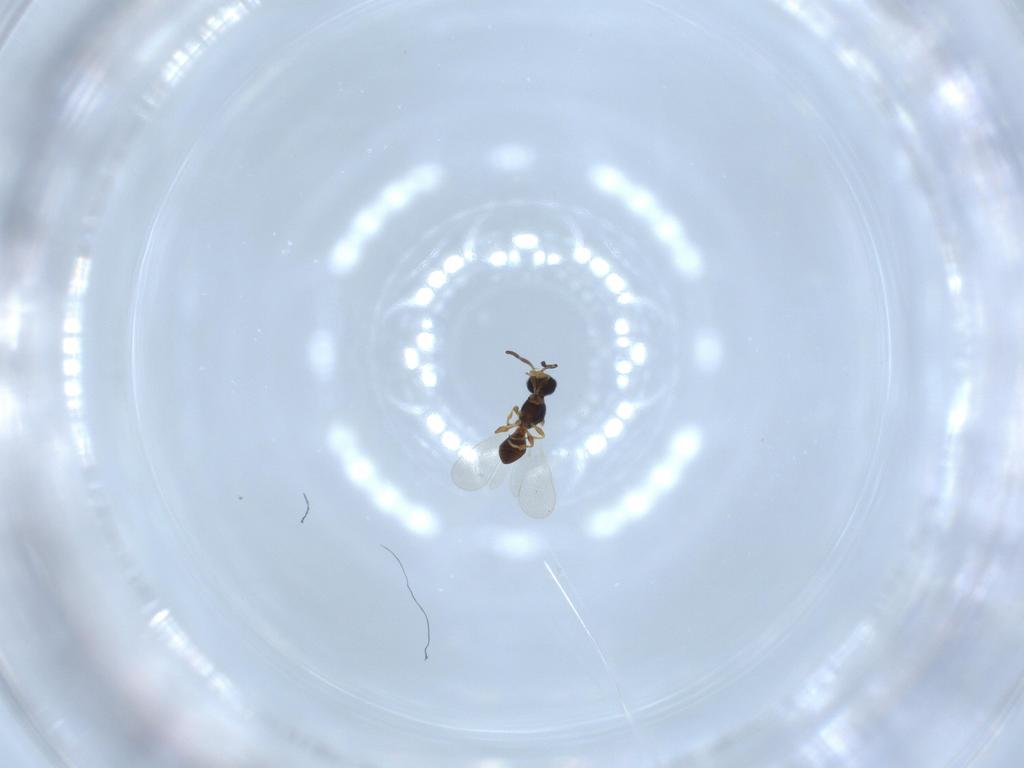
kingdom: Animalia
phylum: Arthropoda
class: Insecta
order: Hymenoptera
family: Platygastridae
